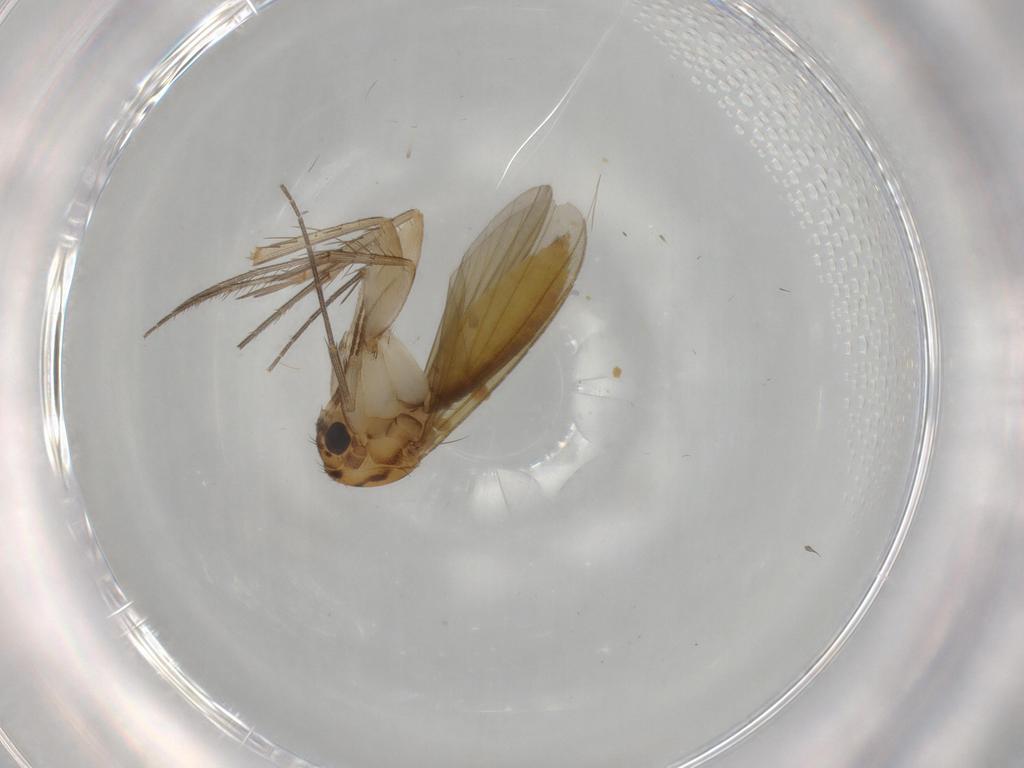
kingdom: Animalia
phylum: Arthropoda
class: Insecta
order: Diptera
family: Mycetophilidae
